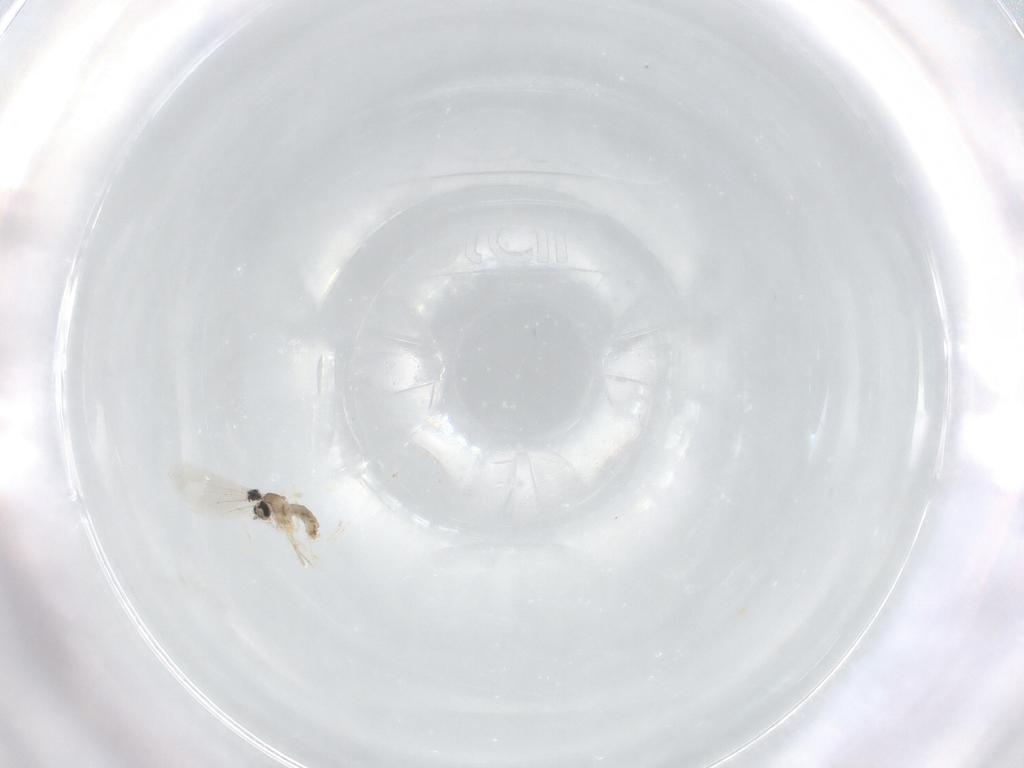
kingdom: Animalia
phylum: Arthropoda
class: Insecta
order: Diptera
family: Cecidomyiidae
